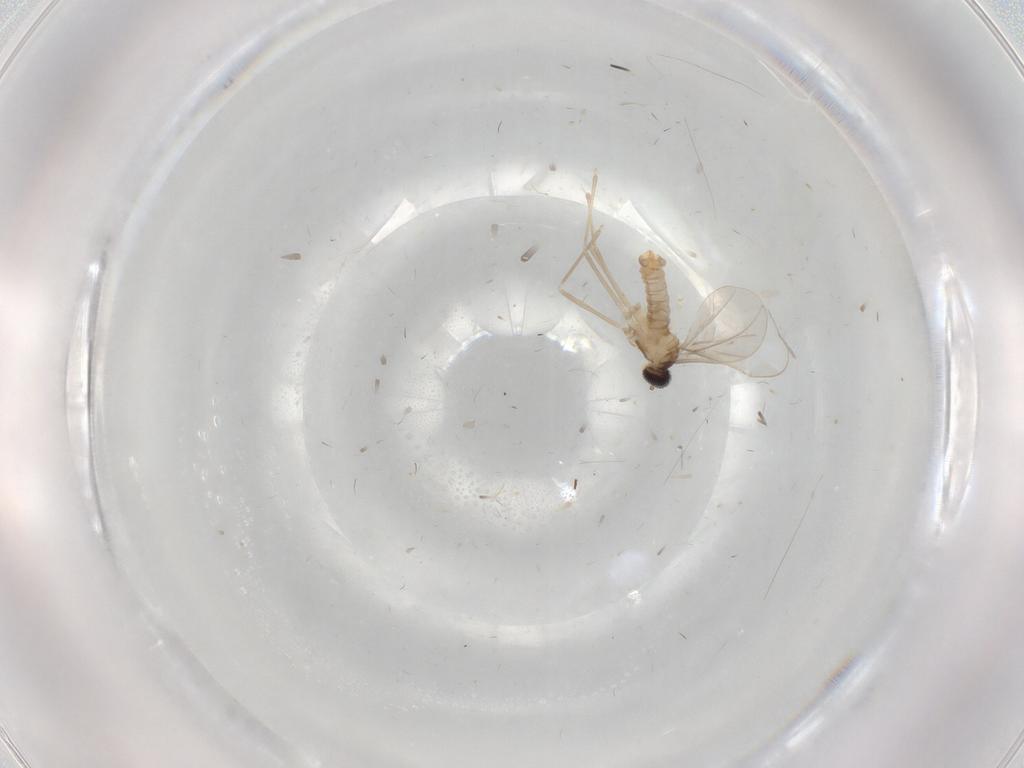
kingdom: Animalia
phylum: Arthropoda
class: Insecta
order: Diptera
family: Cecidomyiidae
